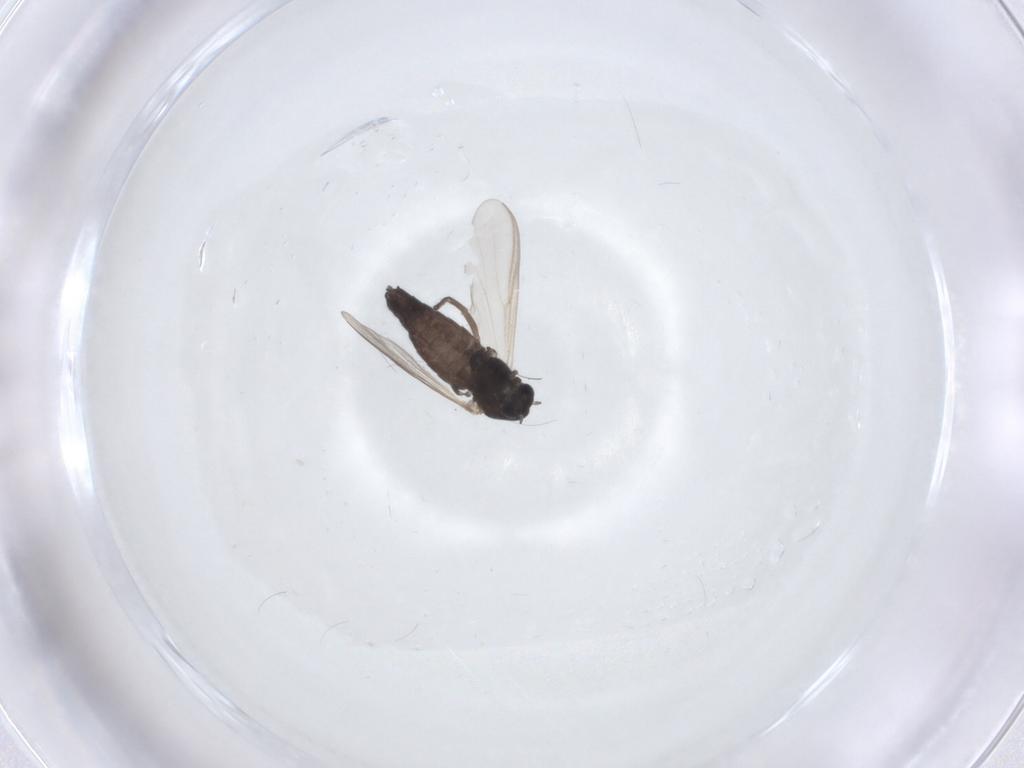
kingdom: Animalia
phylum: Arthropoda
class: Insecta
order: Diptera
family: Chironomidae
